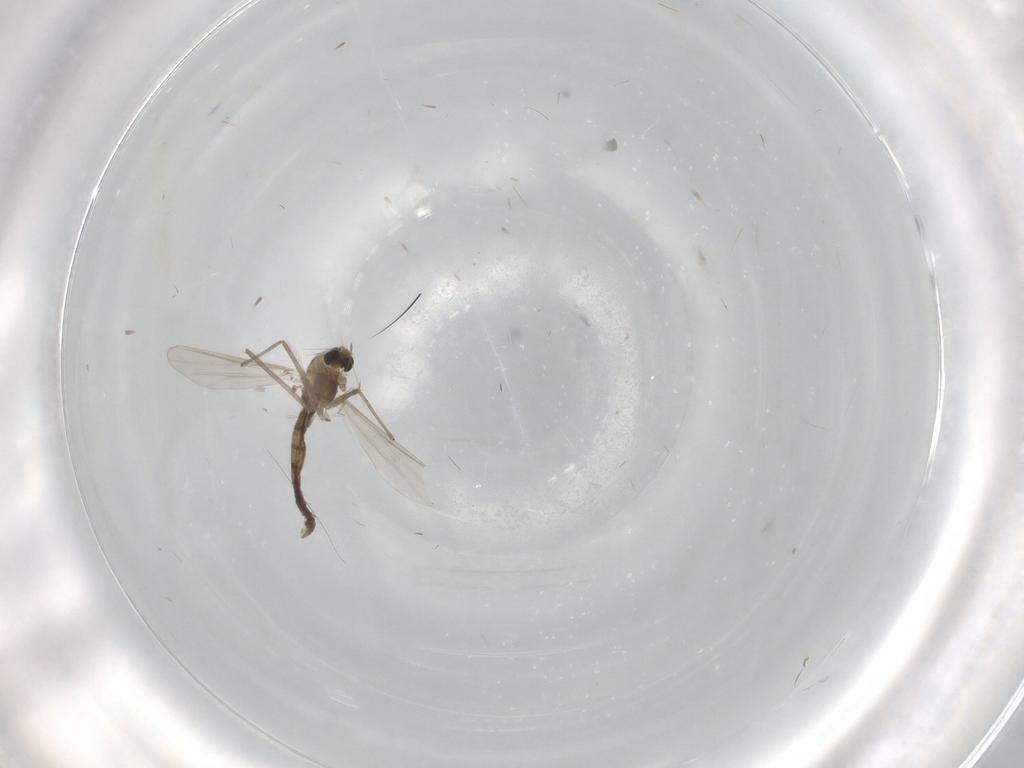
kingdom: Animalia
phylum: Arthropoda
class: Insecta
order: Diptera
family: Chironomidae
